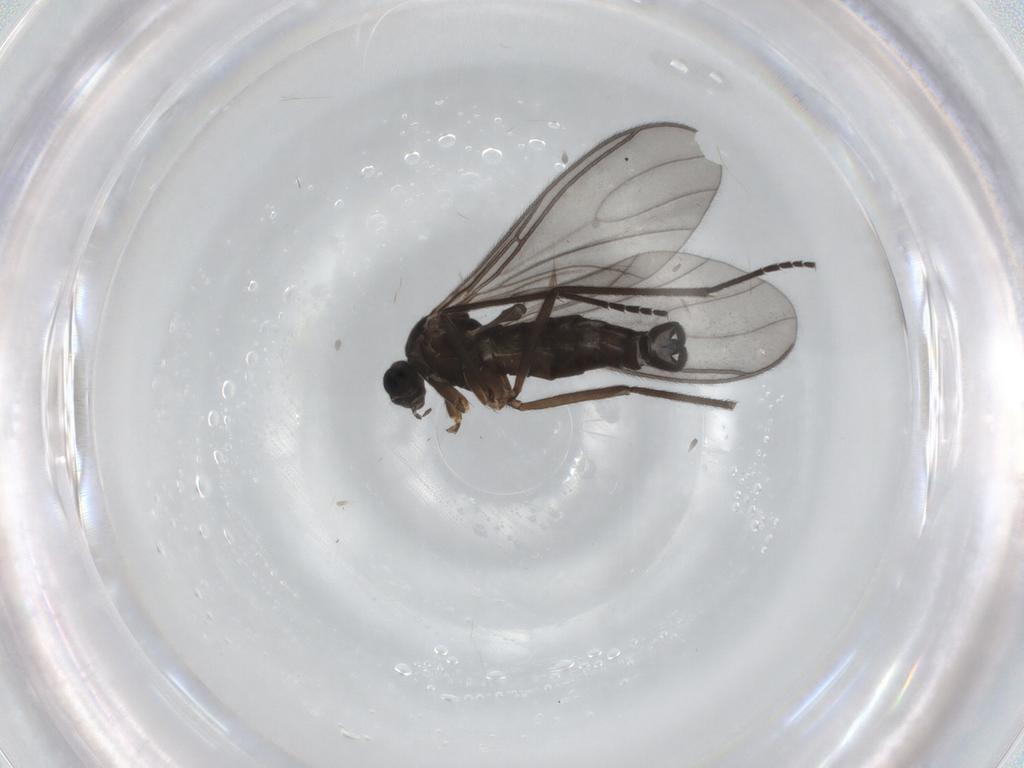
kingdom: Animalia
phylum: Arthropoda
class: Insecta
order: Diptera
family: Sciaridae
